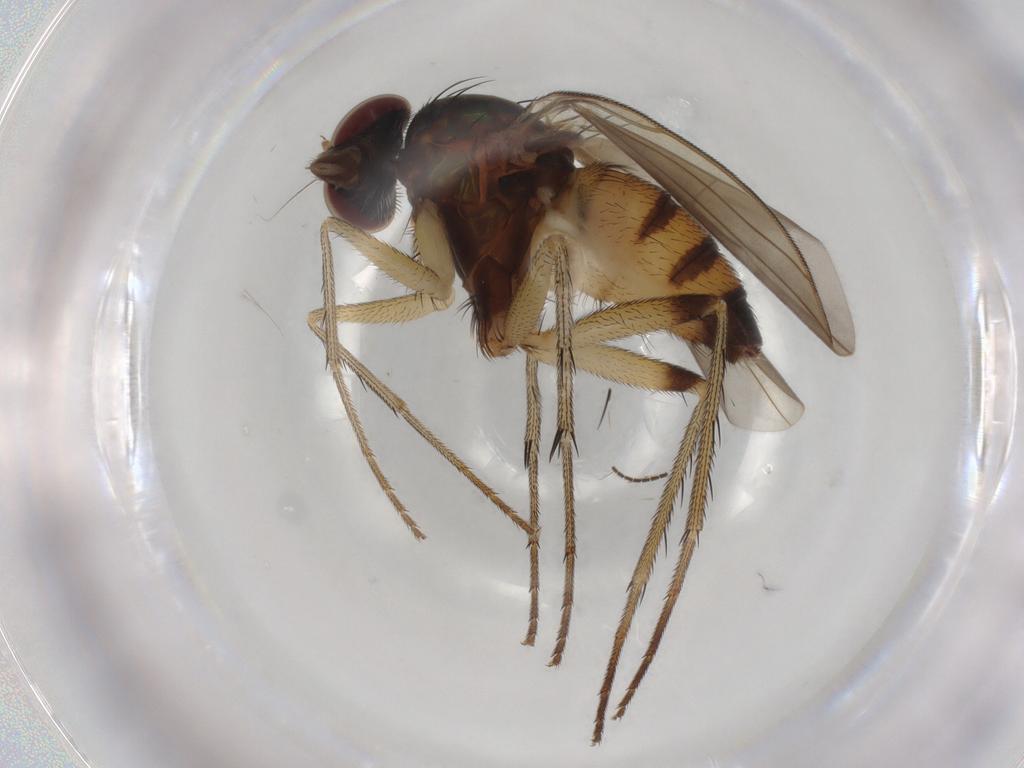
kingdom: Animalia
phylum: Arthropoda
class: Insecta
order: Diptera
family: Dolichopodidae
